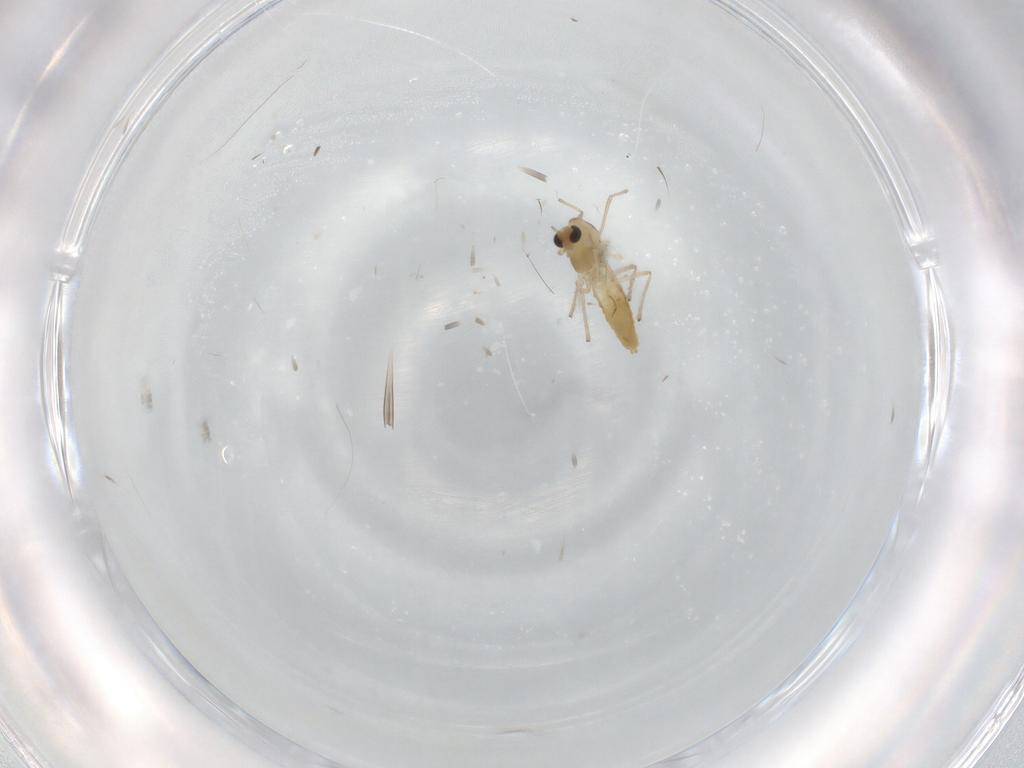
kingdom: Animalia
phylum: Arthropoda
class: Insecta
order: Diptera
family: Chironomidae
